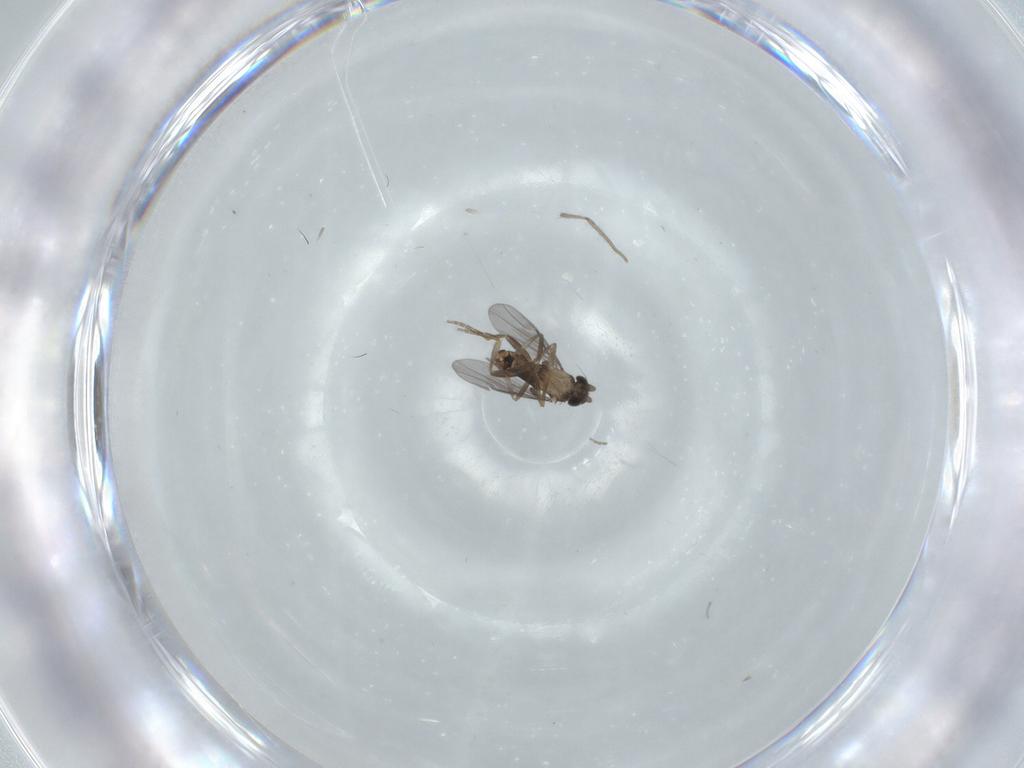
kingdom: Animalia
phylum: Arthropoda
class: Insecta
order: Diptera
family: Chironomidae
